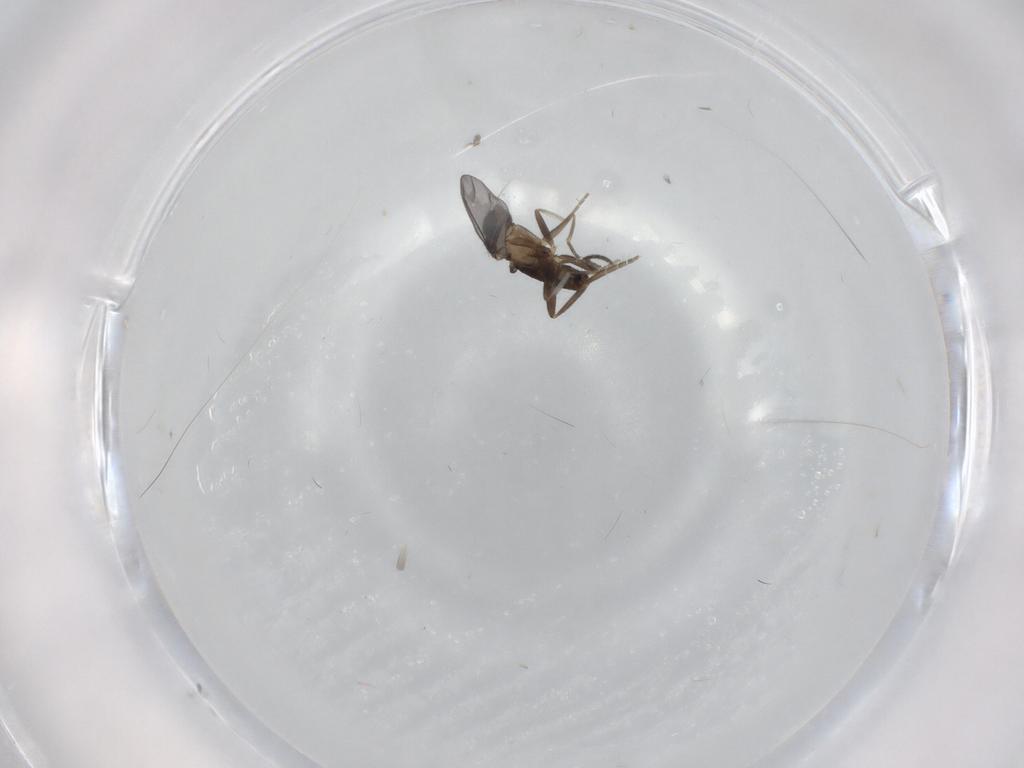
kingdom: Animalia
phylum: Arthropoda
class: Insecta
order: Diptera
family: Phoridae
